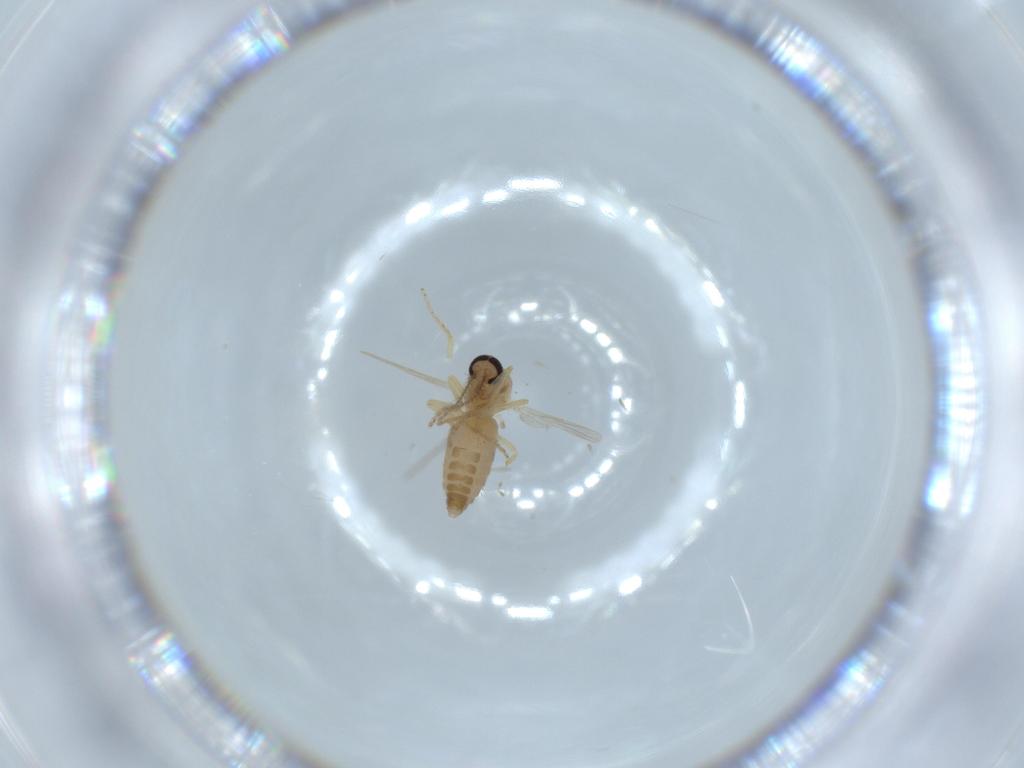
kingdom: Animalia
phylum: Arthropoda
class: Insecta
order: Diptera
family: Ceratopogonidae
